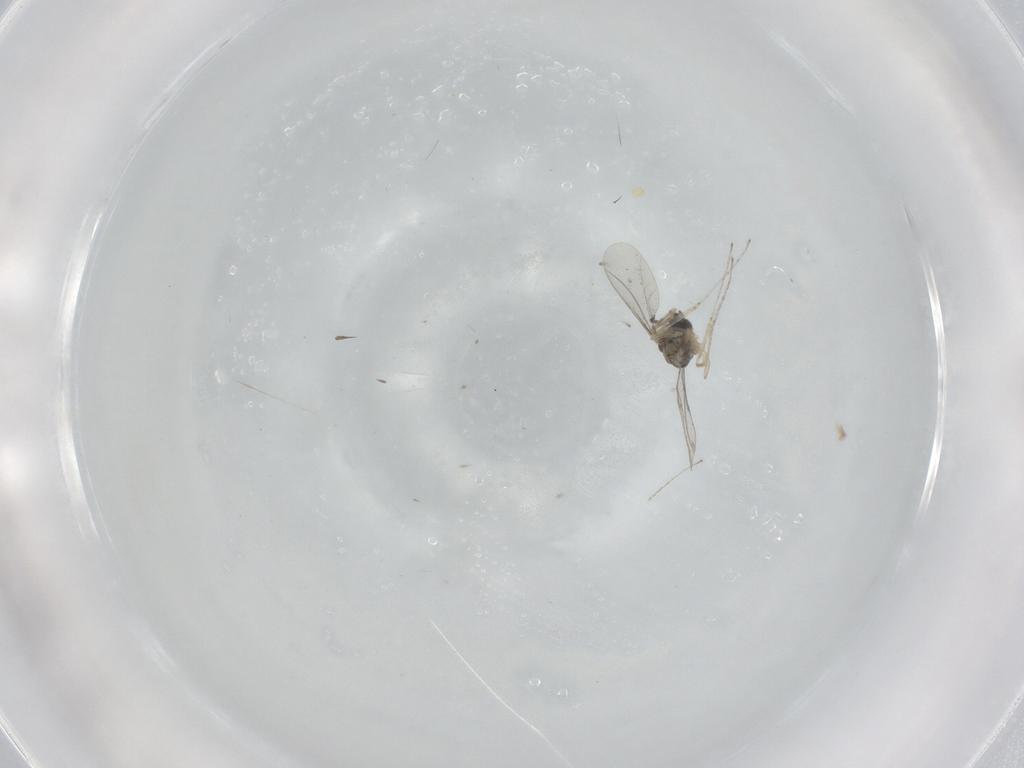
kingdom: Animalia
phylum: Arthropoda
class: Insecta
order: Diptera
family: Cecidomyiidae
